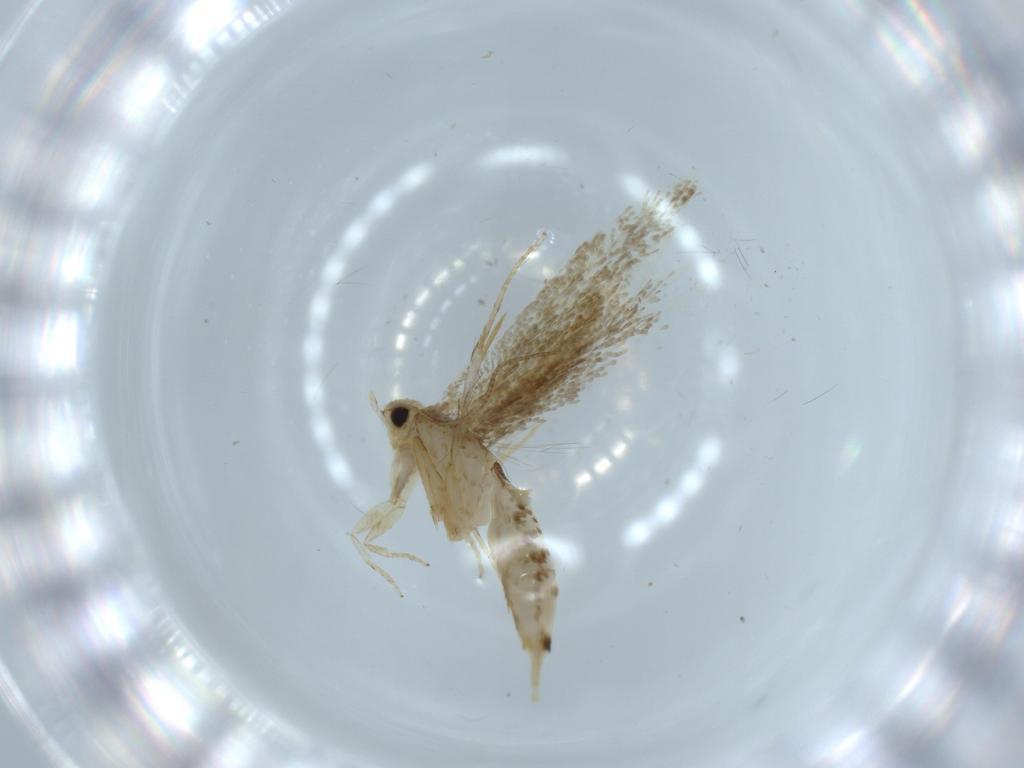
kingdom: Animalia
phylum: Arthropoda
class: Insecta
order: Lepidoptera
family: Tineidae
